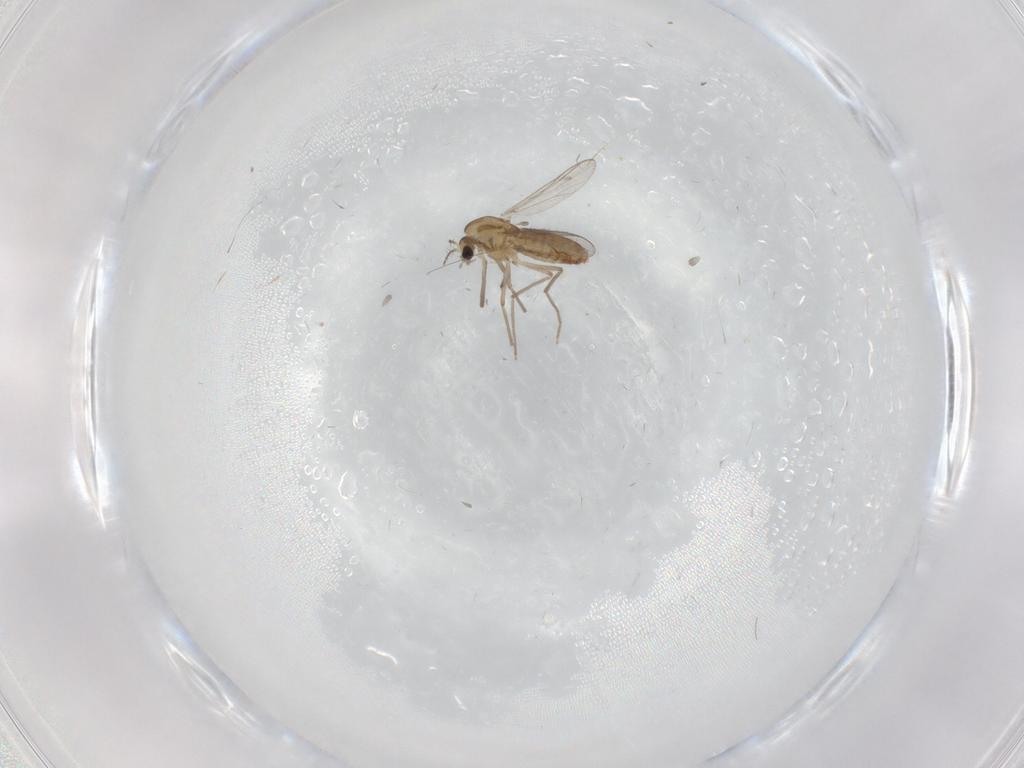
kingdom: Animalia
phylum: Arthropoda
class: Insecta
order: Diptera
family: Chironomidae
